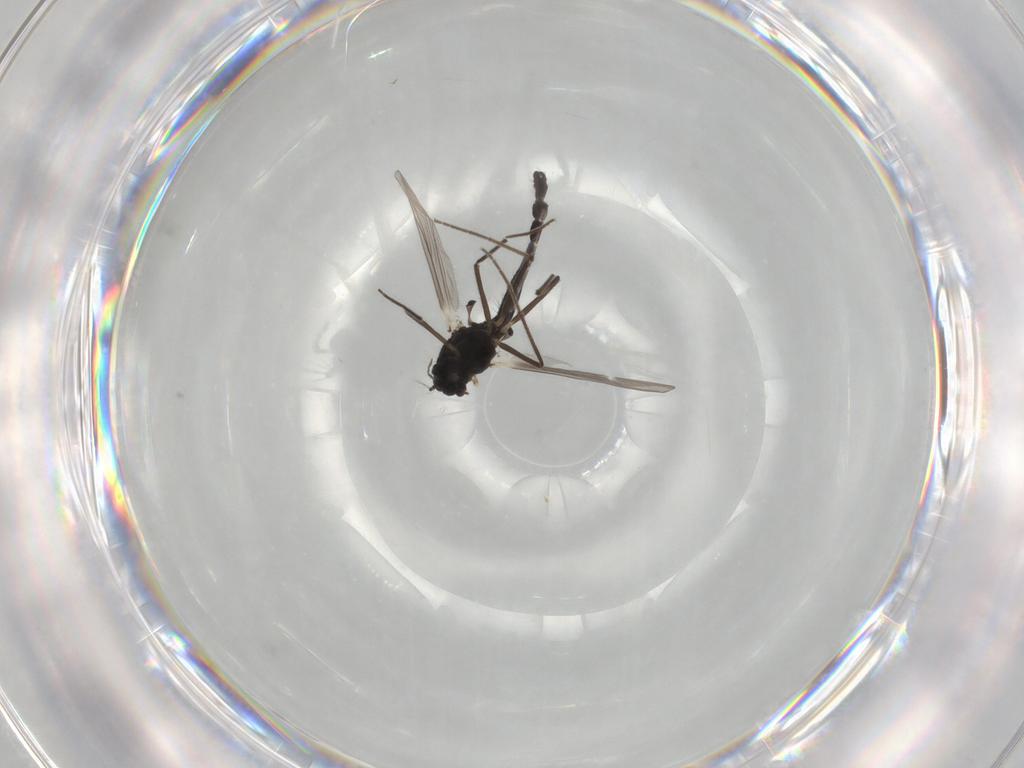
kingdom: Animalia
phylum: Arthropoda
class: Insecta
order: Diptera
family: Chironomidae
